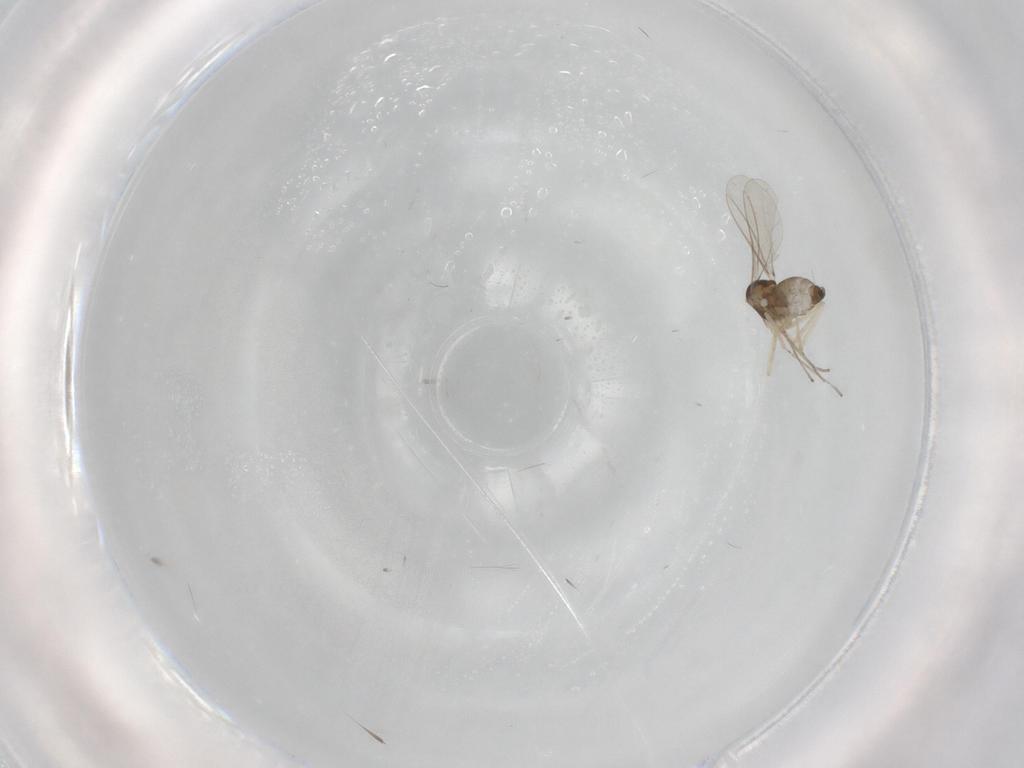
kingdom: Animalia
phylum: Arthropoda
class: Insecta
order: Diptera
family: Cecidomyiidae
